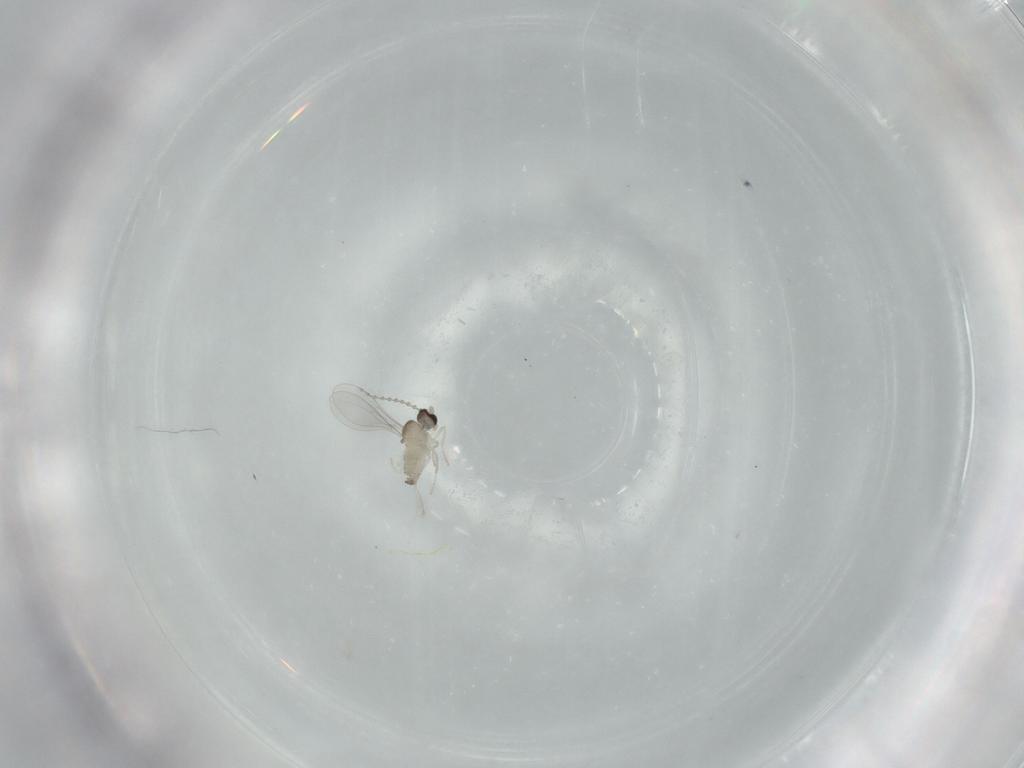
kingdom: Animalia
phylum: Arthropoda
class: Insecta
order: Diptera
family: Cecidomyiidae
